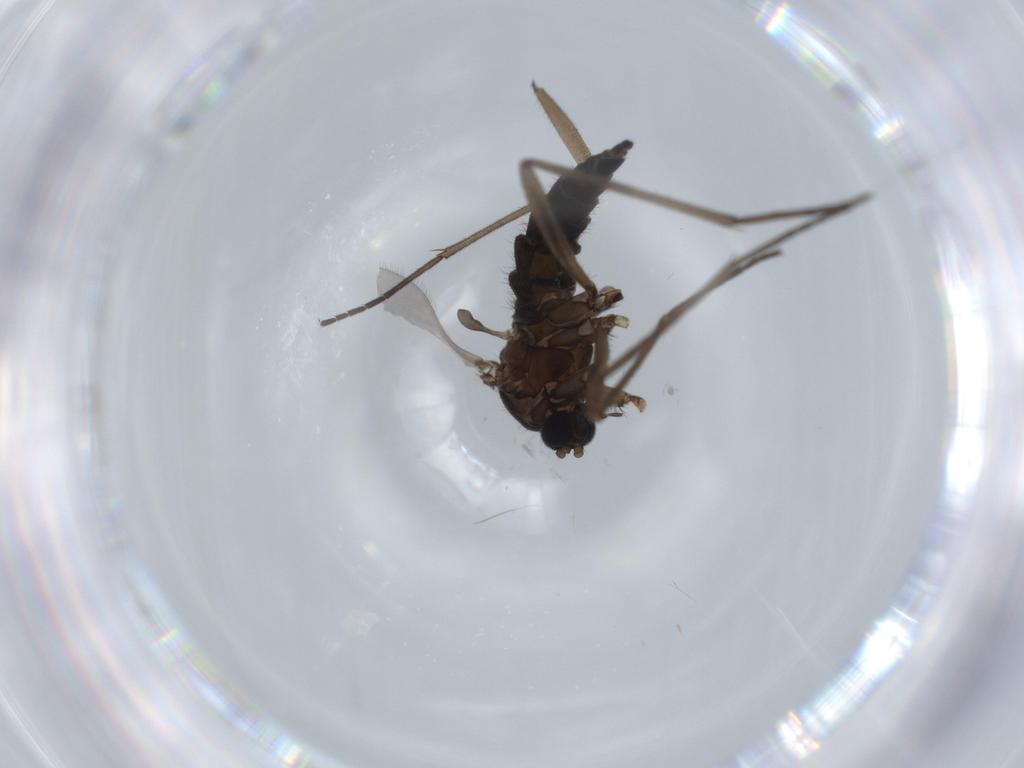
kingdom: Animalia
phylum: Arthropoda
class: Insecta
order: Diptera
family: Sciaridae
